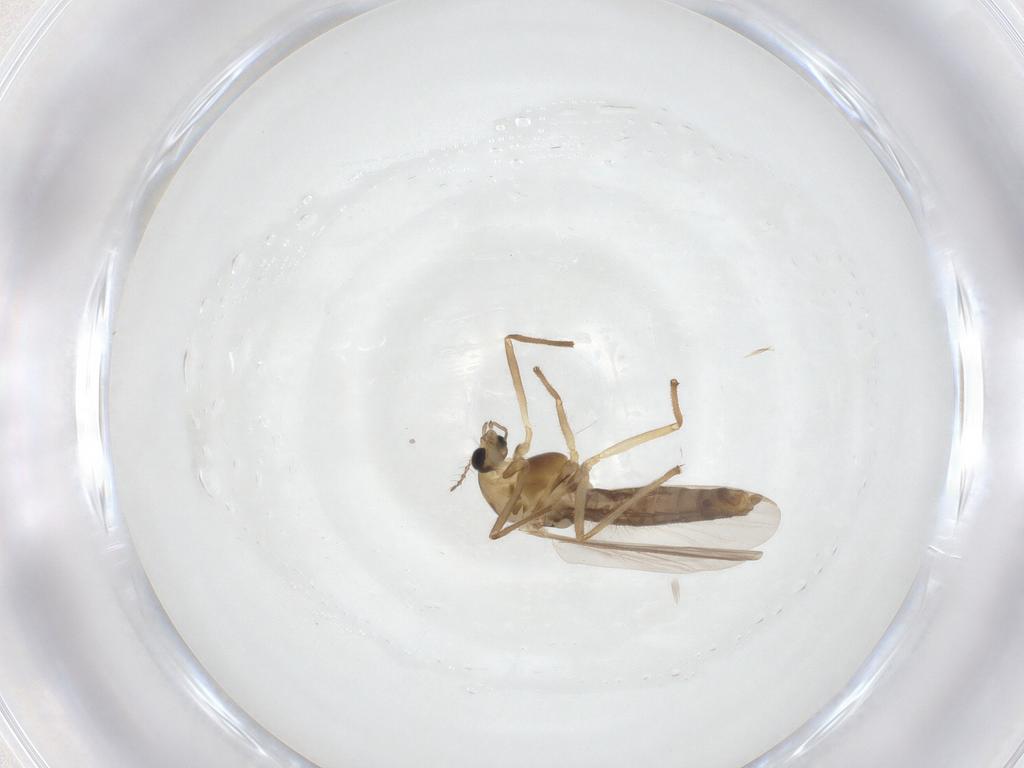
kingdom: Animalia
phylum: Arthropoda
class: Insecta
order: Diptera
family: Chironomidae
